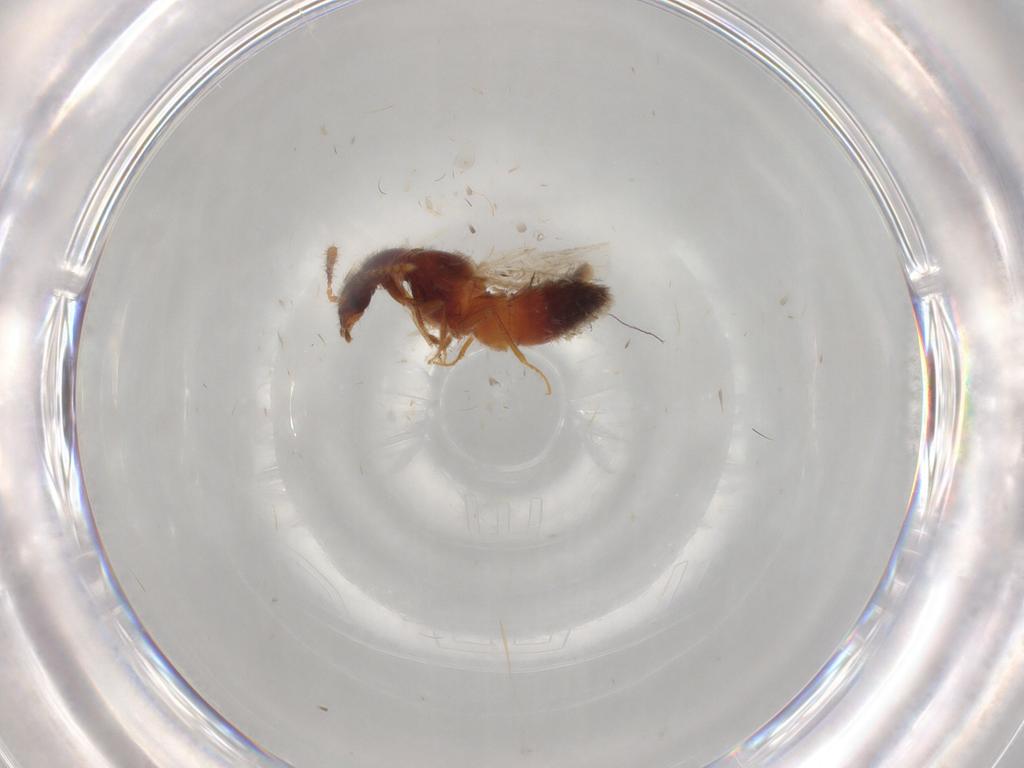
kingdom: Animalia
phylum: Arthropoda
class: Insecta
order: Coleoptera
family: Staphylinidae
